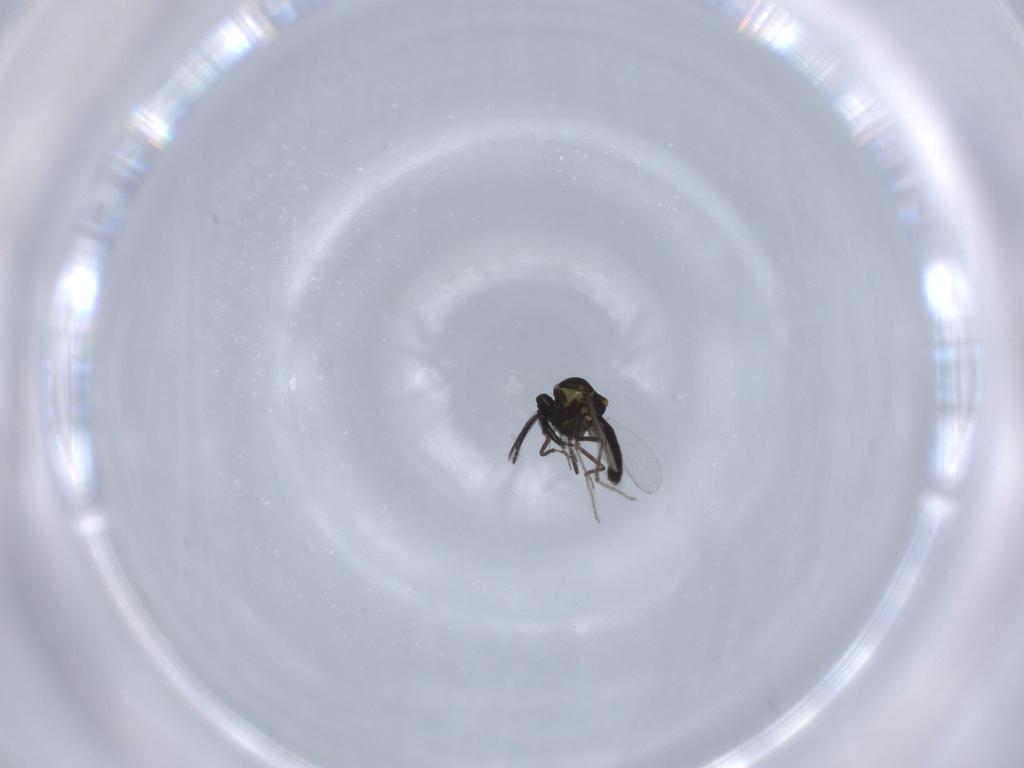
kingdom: Animalia
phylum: Arthropoda
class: Insecta
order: Diptera
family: Ceratopogonidae
